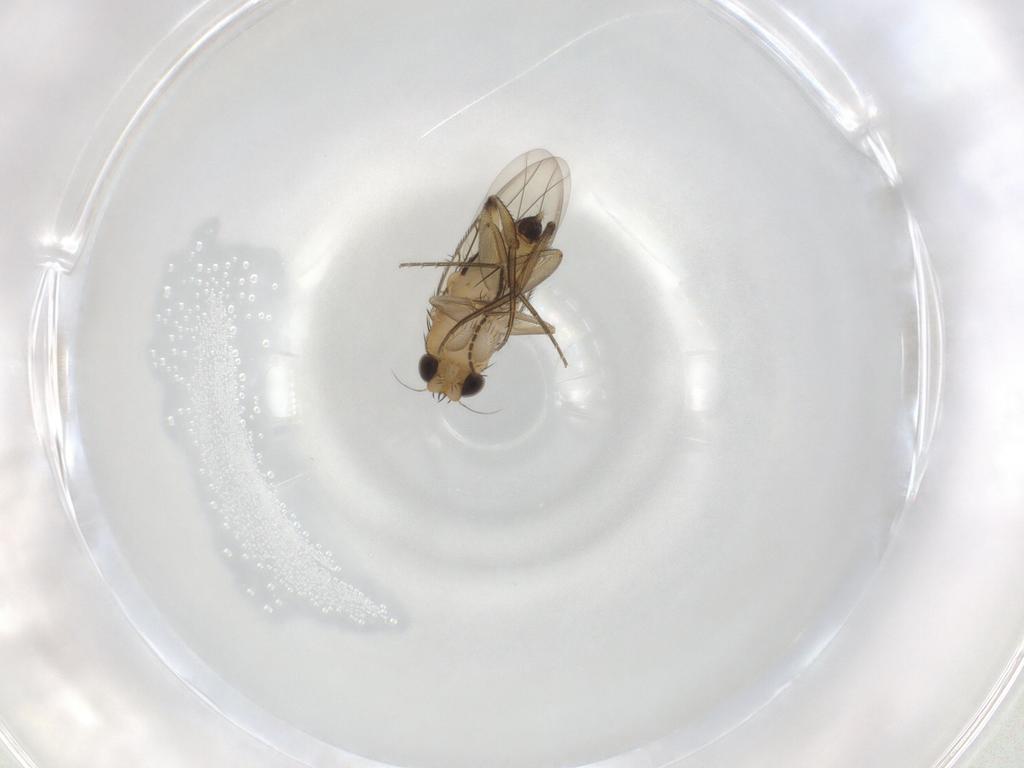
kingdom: Animalia
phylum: Arthropoda
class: Insecta
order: Diptera
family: Phoridae
